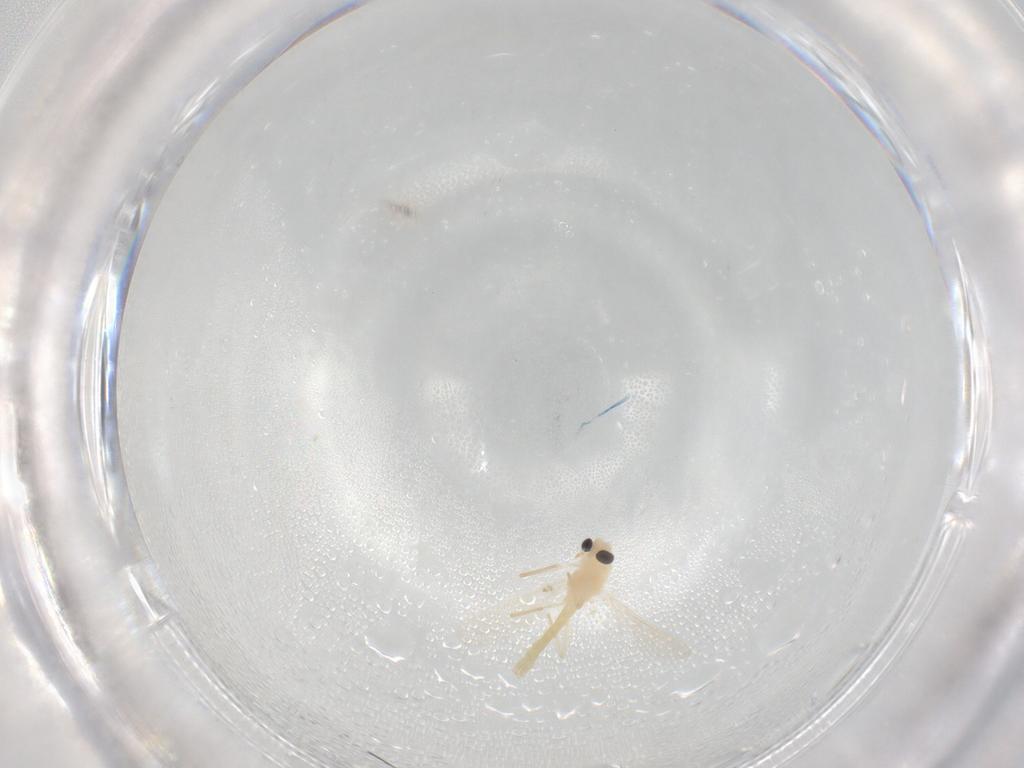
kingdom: Animalia
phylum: Arthropoda
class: Insecta
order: Diptera
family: Chironomidae
